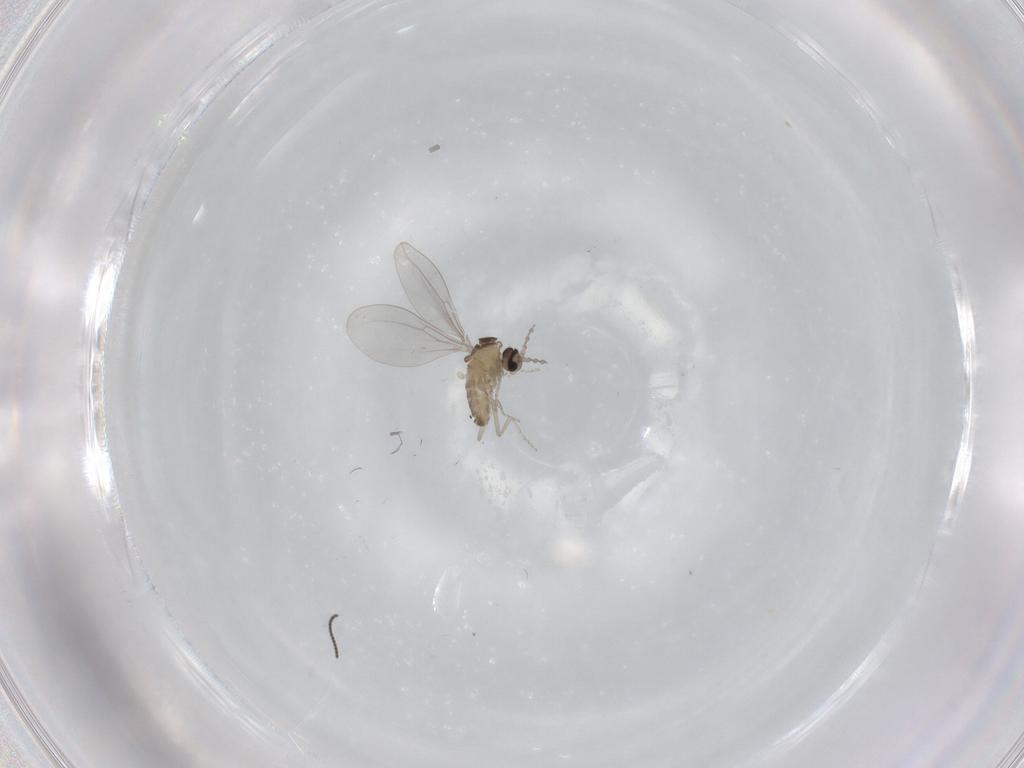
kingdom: Animalia
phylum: Arthropoda
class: Insecta
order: Diptera
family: Cecidomyiidae
